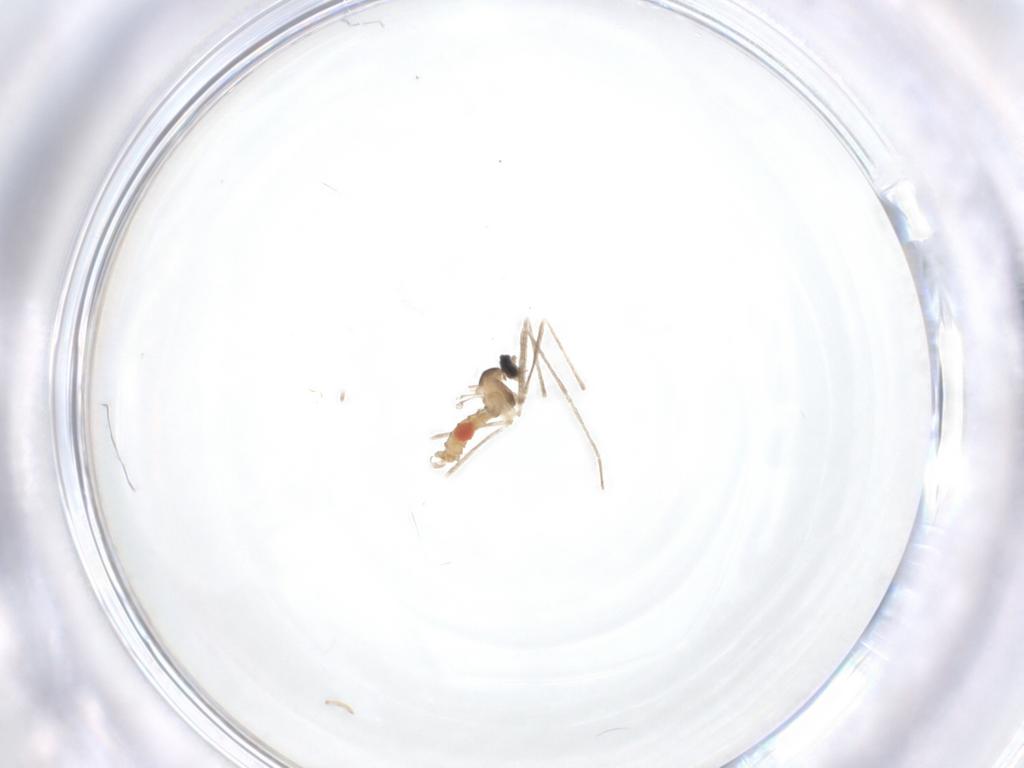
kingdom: Animalia
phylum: Arthropoda
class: Insecta
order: Diptera
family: Cecidomyiidae
